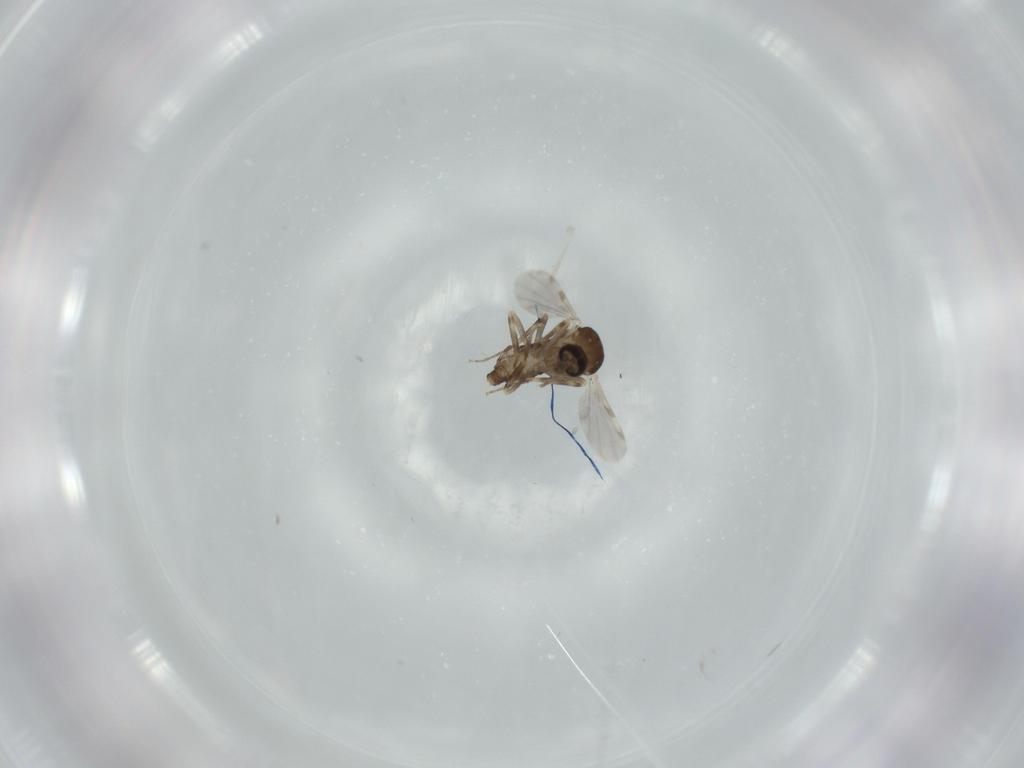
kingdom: Animalia
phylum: Arthropoda
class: Insecta
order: Diptera
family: Ceratopogonidae
